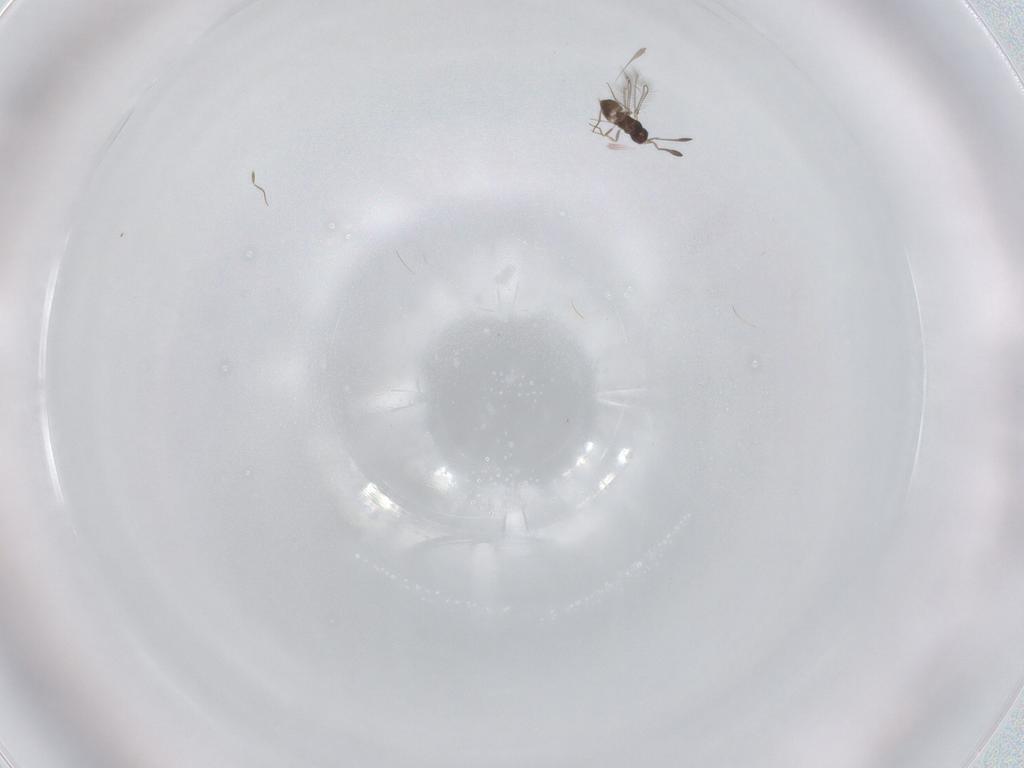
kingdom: Animalia
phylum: Arthropoda
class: Insecta
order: Hymenoptera
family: Mymaridae
